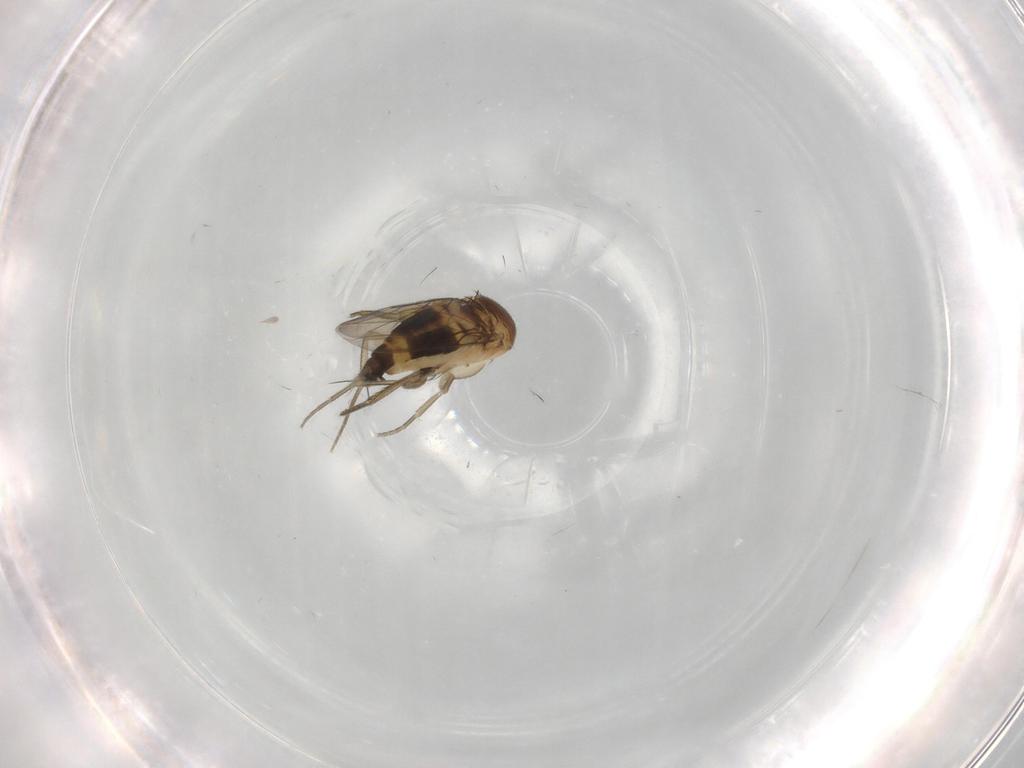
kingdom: Animalia
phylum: Arthropoda
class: Insecta
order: Diptera
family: Phoridae
